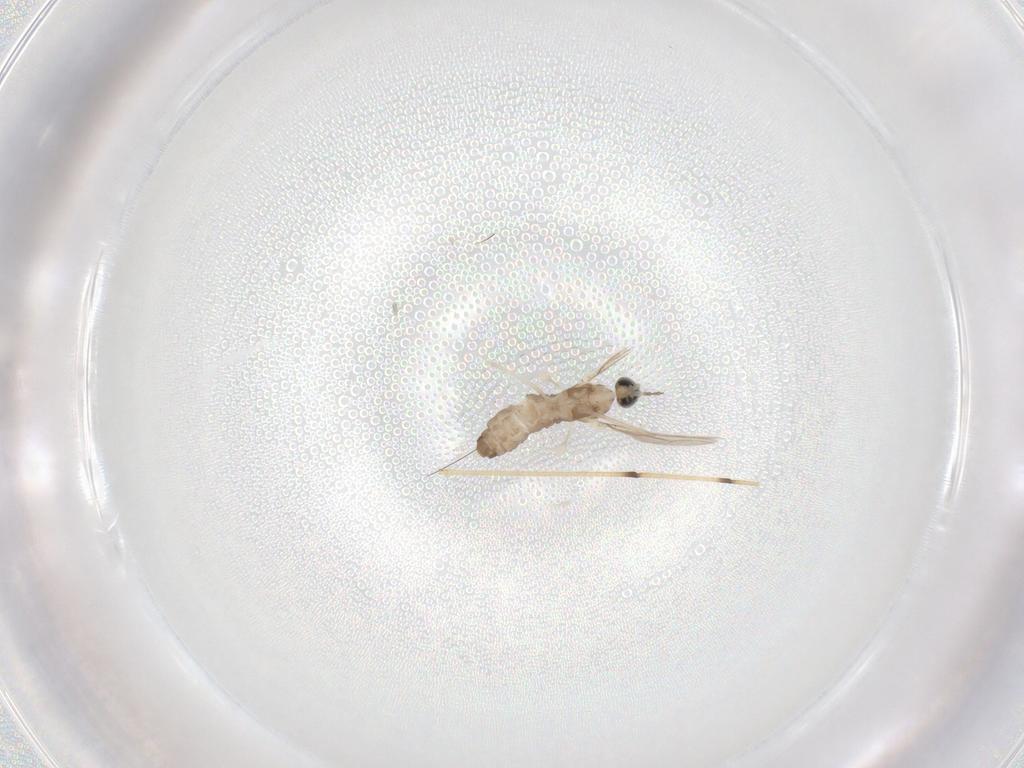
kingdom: Animalia
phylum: Arthropoda
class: Insecta
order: Diptera
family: Cecidomyiidae
